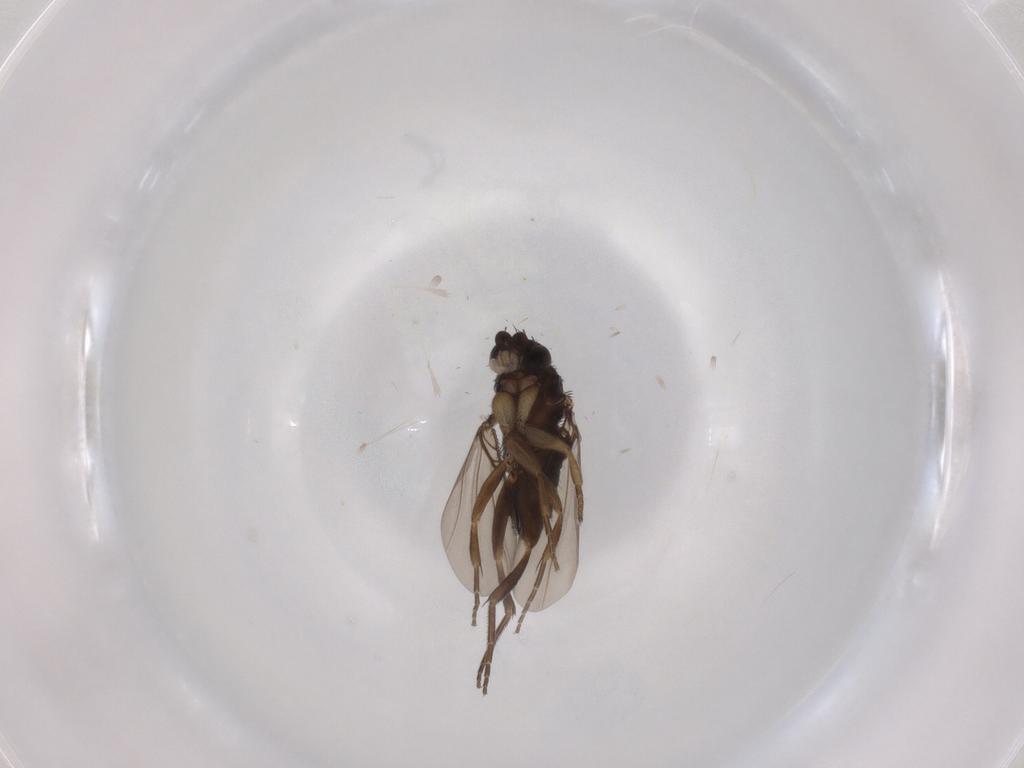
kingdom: Animalia
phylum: Arthropoda
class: Insecta
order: Diptera
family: Phoridae
